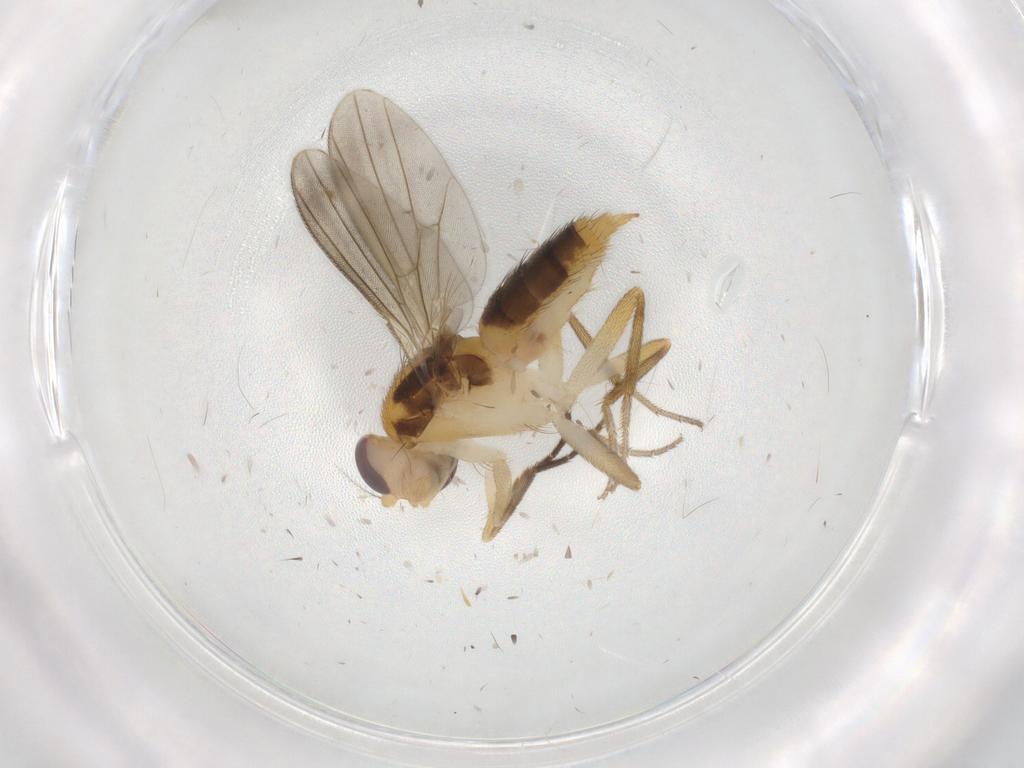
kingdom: Animalia
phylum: Arthropoda
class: Insecta
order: Diptera
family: Agromyzidae
